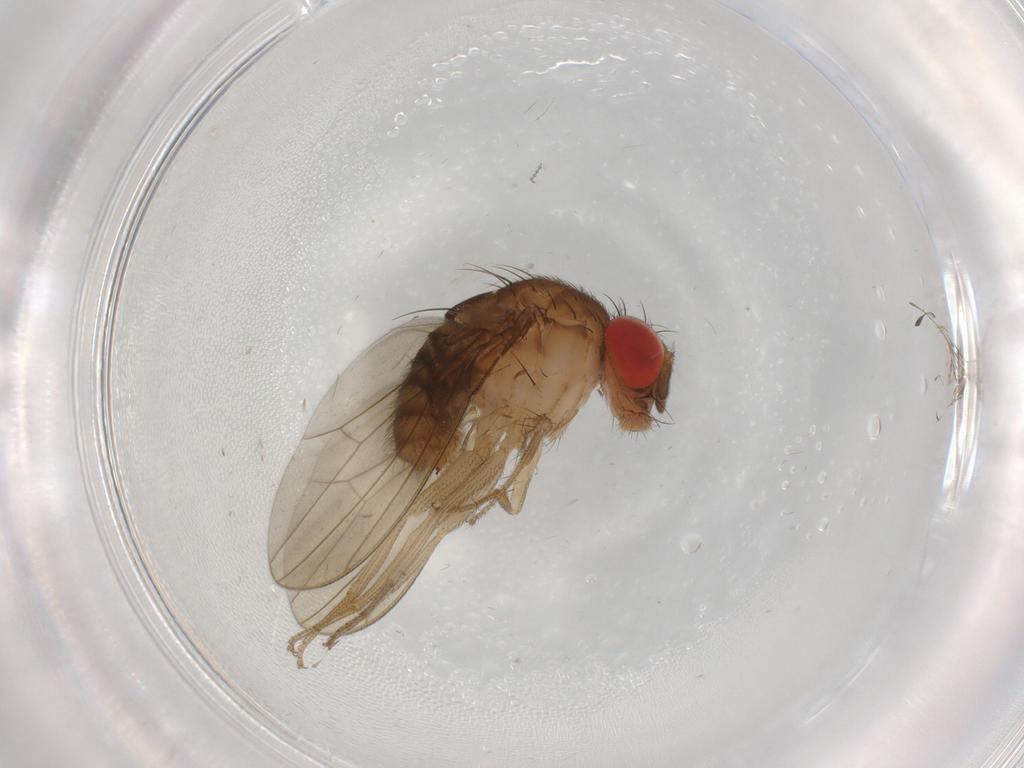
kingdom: Animalia
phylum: Arthropoda
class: Insecta
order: Diptera
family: Drosophilidae
